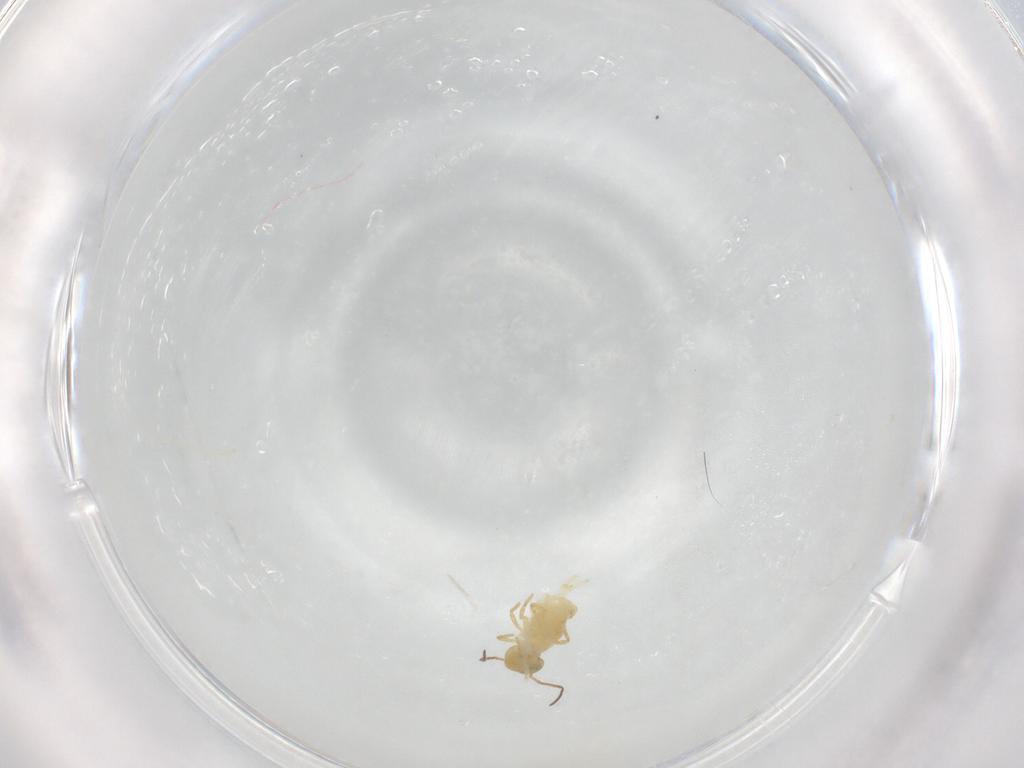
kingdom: Animalia
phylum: Arthropoda
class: Collembola
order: Symphypleona
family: Bourletiellidae
